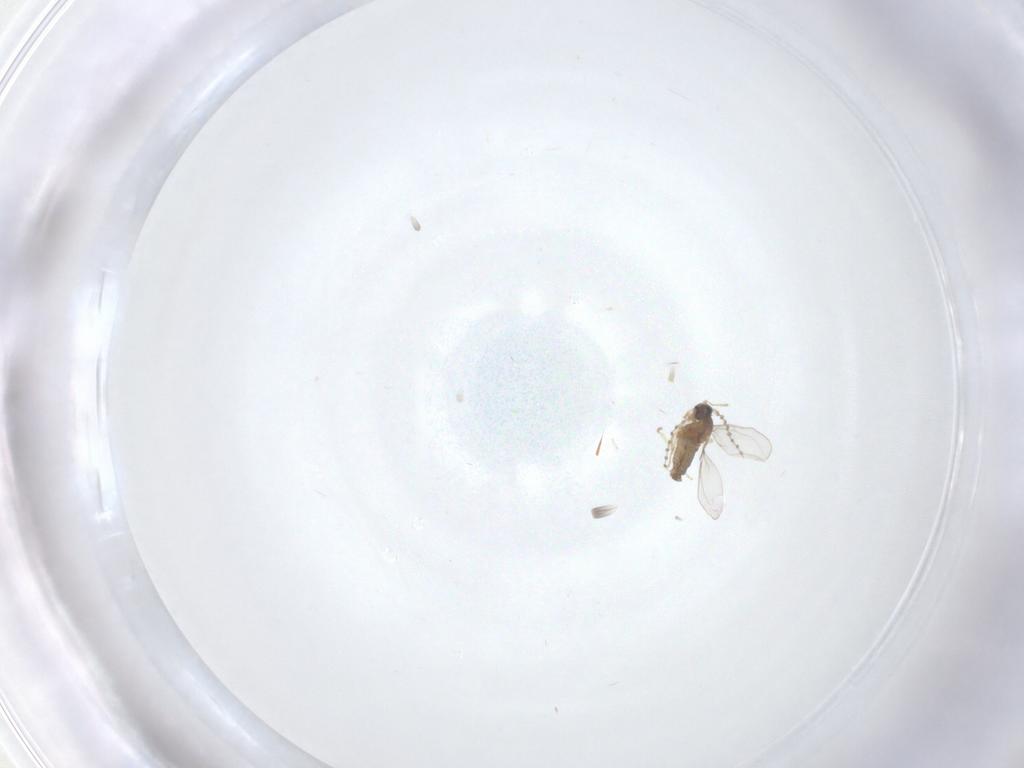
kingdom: Animalia
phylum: Arthropoda
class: Insecta
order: Diptera
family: Cecidomyiidae
